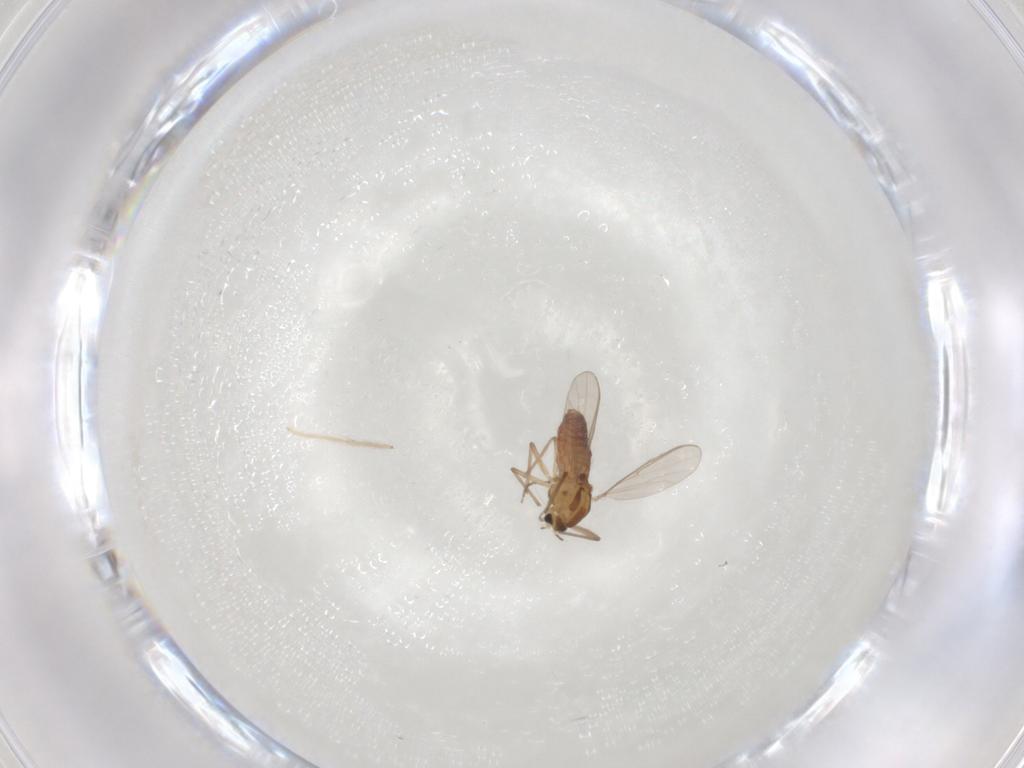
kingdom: Animalia
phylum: Arthropoda
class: Insecta
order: Diptera
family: Chironomidae
